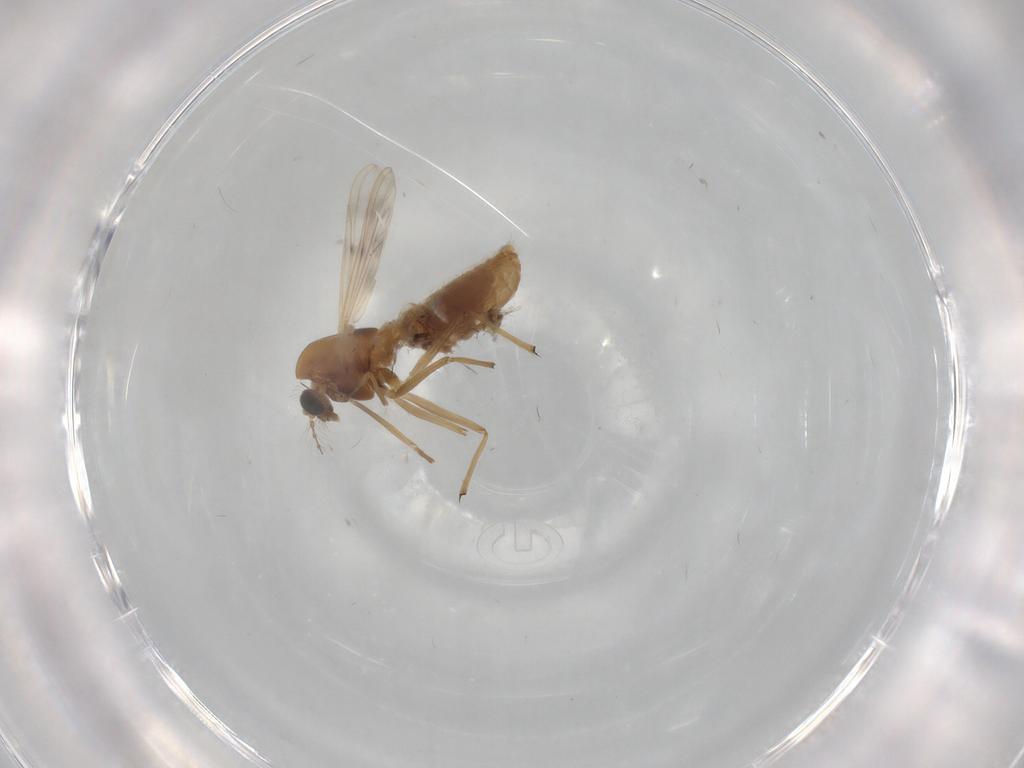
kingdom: Animalia
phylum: Arthropoda
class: Insecta
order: Diptera
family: Chironomidae
